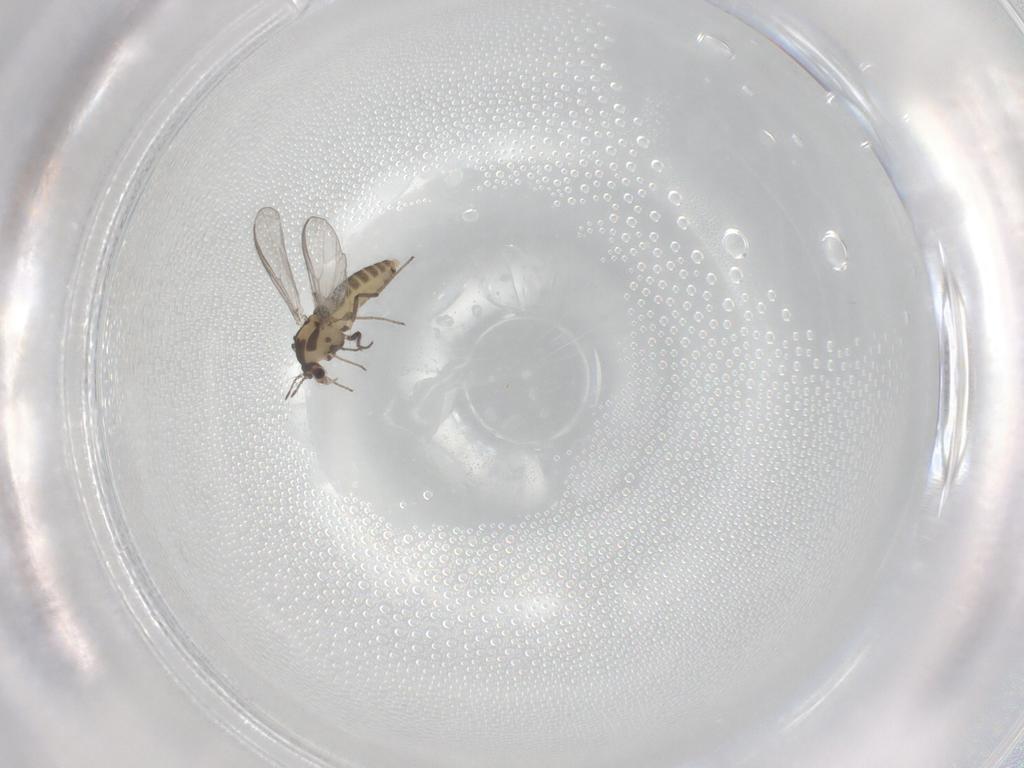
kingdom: Animalia
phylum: Arthropoda
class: Insecta
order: Diptera
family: Chironomidae
